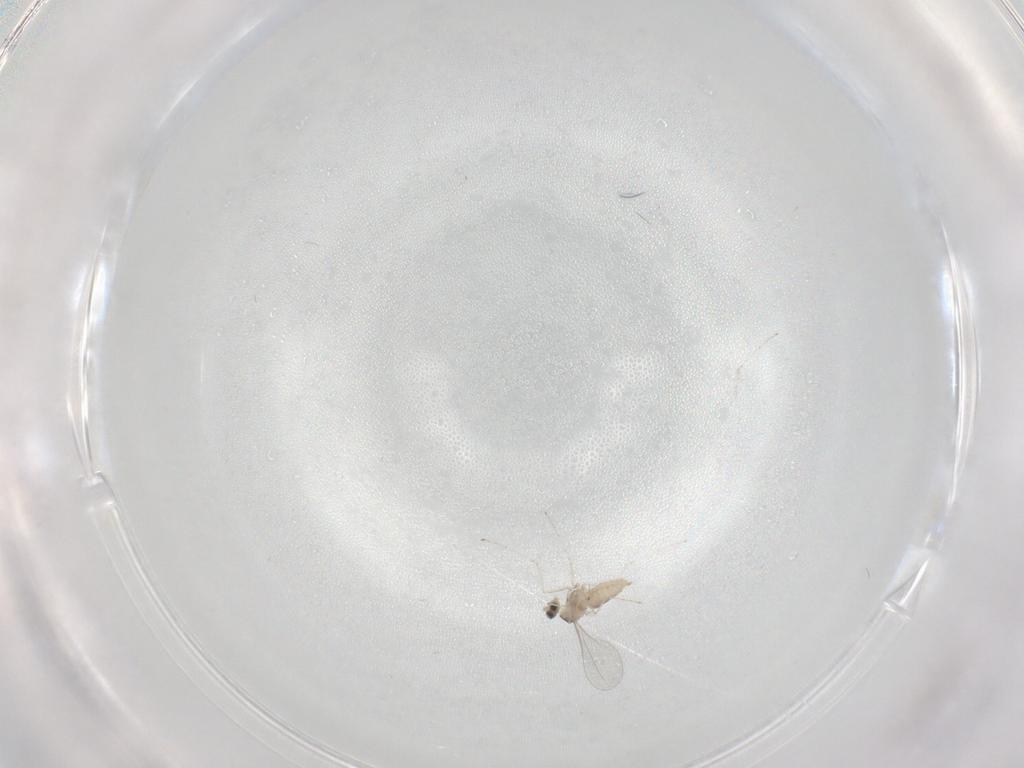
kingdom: Animalia
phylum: Arthropoda
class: Insecta
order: Diptera
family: Cecidomyiidae
